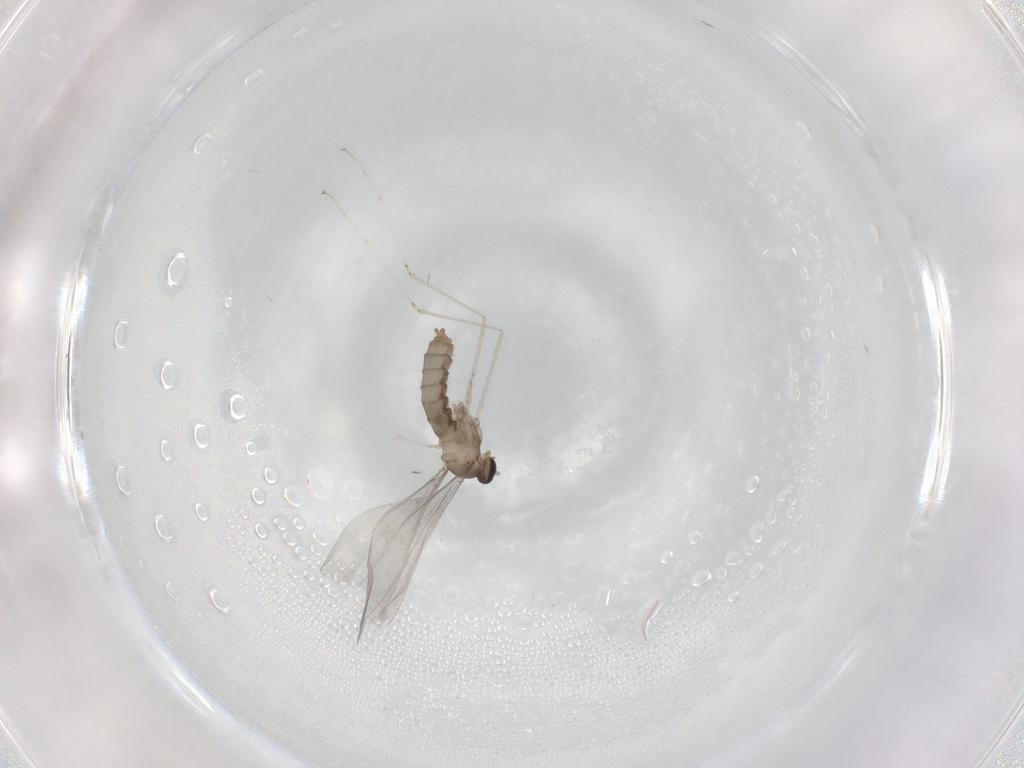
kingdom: Animalia
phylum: Arthropoda
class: Insecta
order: Diptera
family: Cecidomyiidae
